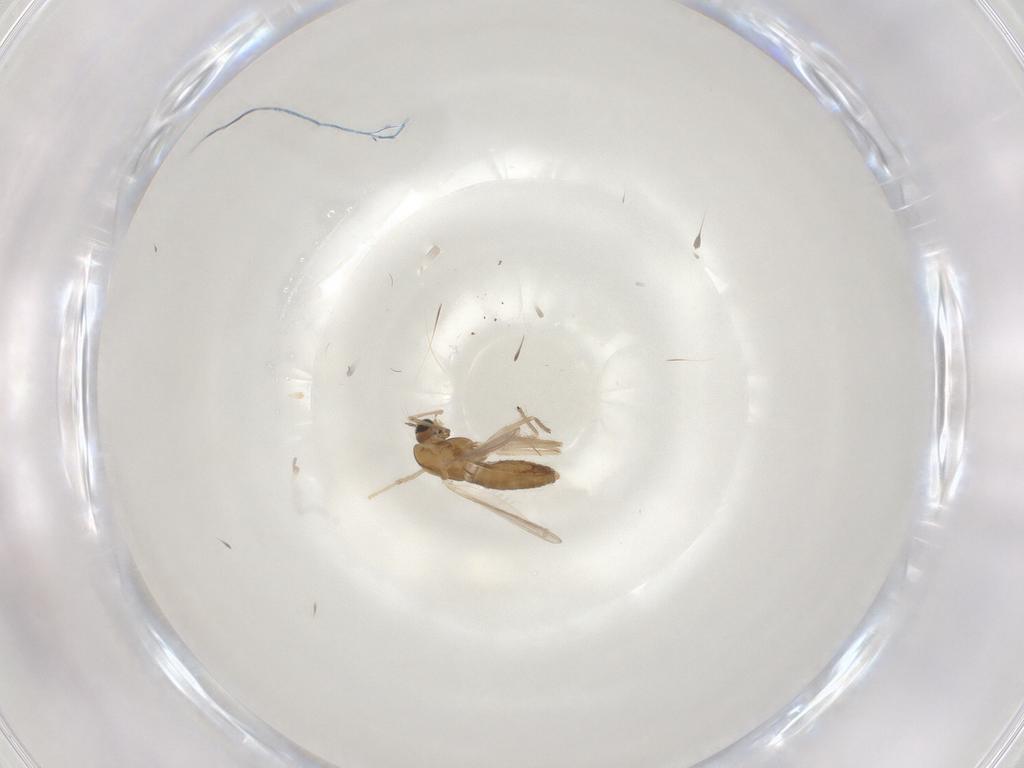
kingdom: Animalia
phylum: Arthropoda
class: Insecta
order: Diptera
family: Chironomidae
